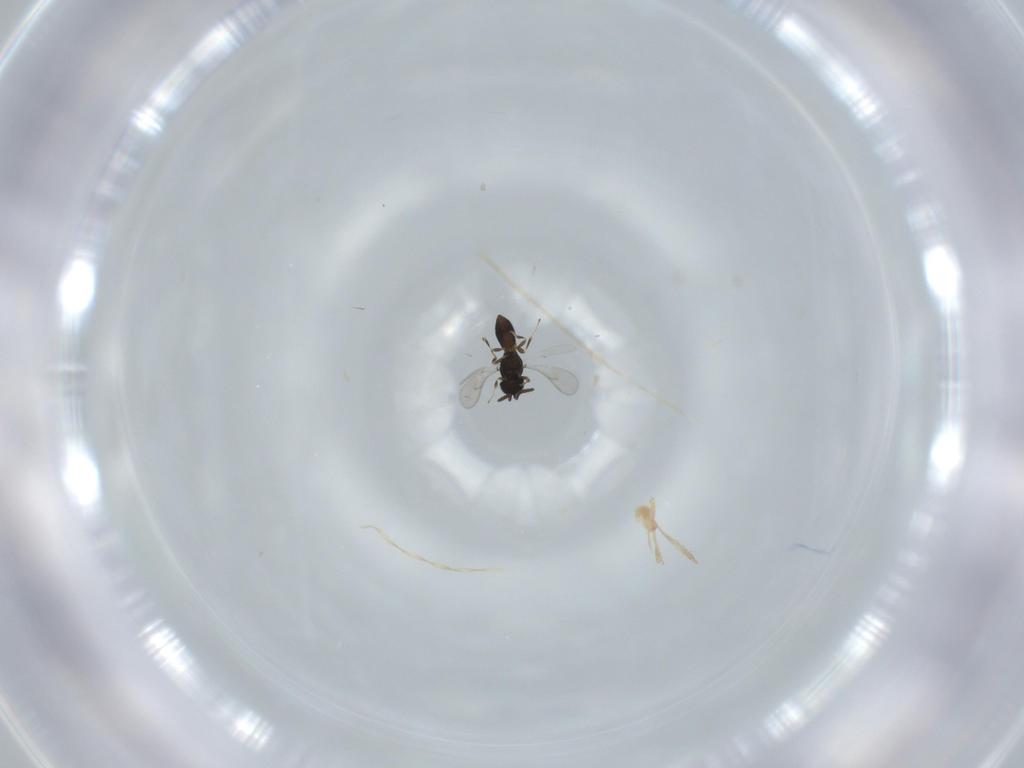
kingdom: Animalia
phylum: Arthropoda
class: Insecta
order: Hymenoptera
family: Scelionidae
